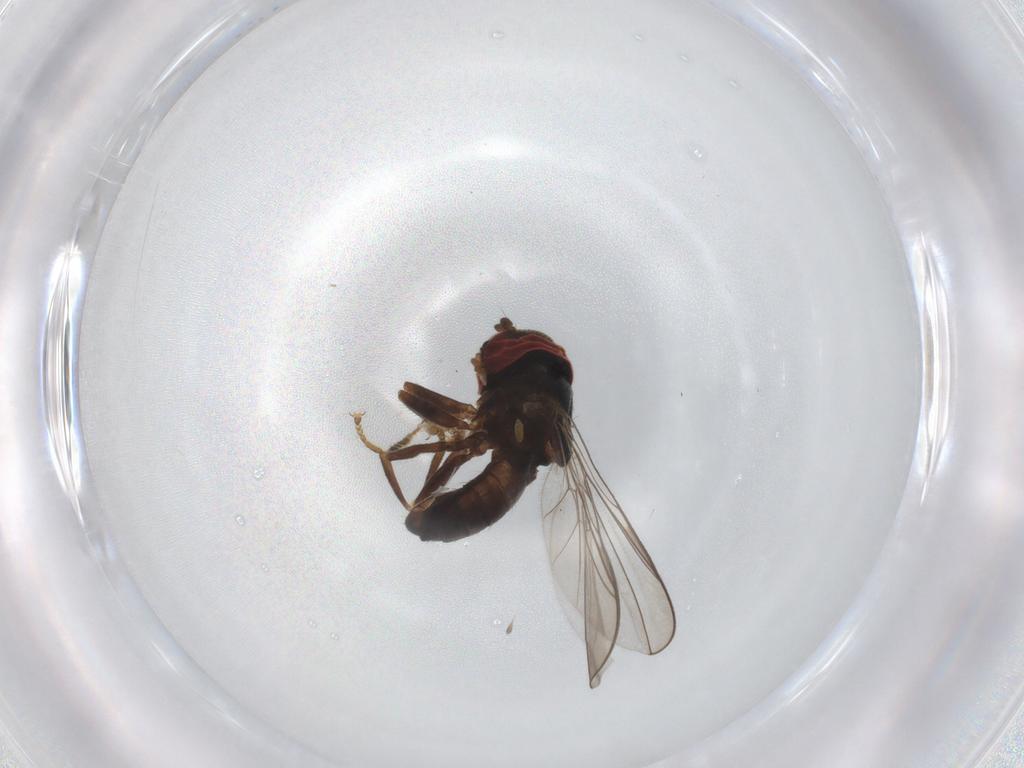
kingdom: Animalia
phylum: Arthropoda
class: Insecta
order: Diptera
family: Pipunculidae
